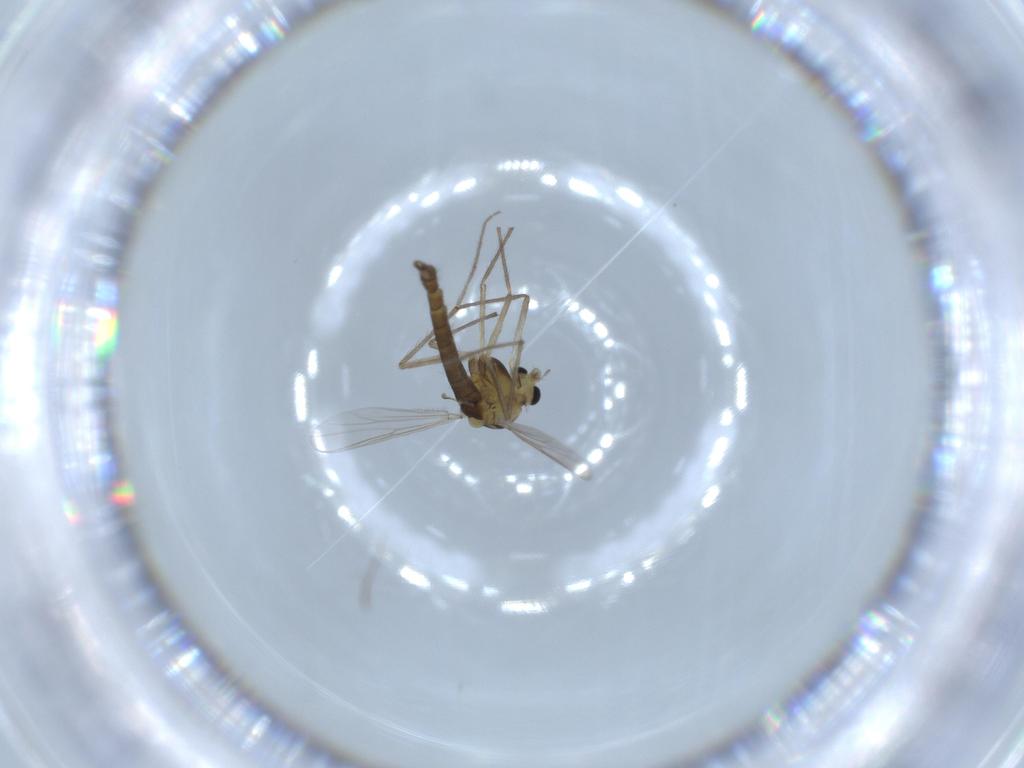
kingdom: Animalia
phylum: Arthropoda
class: Insecta
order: Diptera
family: Chironomidae
